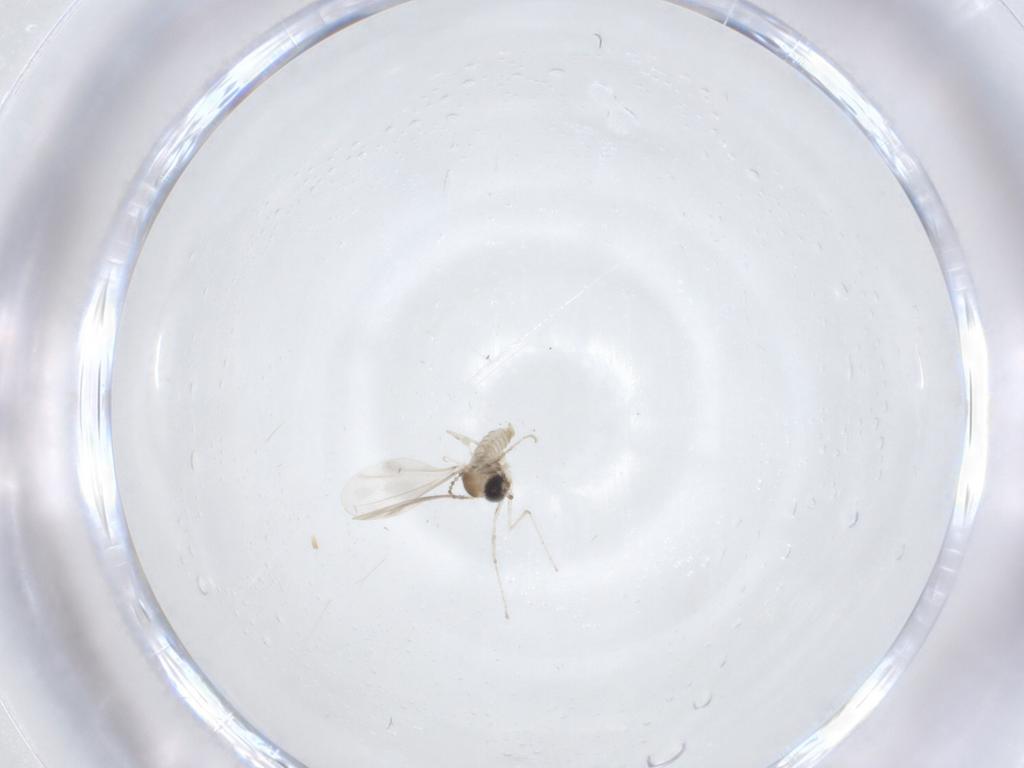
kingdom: Animalia
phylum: Arthropoda
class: Insecta
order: Diptera
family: Cecidomyiidae
